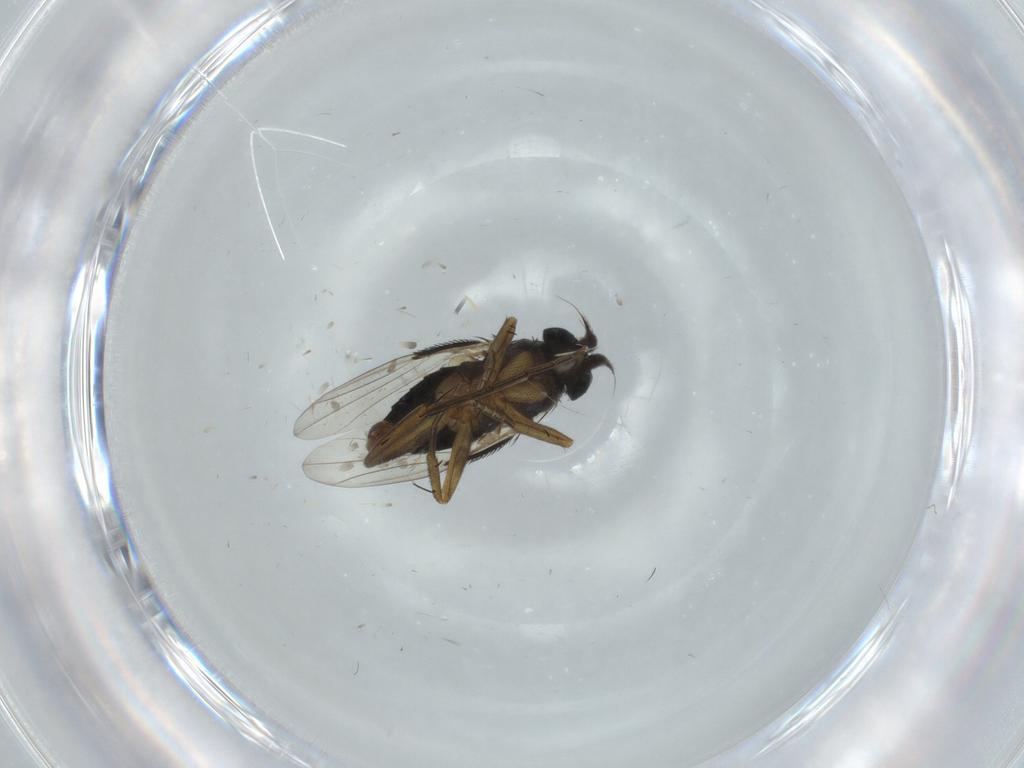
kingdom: Animalia
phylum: Arthropoda
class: Insecta
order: Diptera
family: Phoridae
